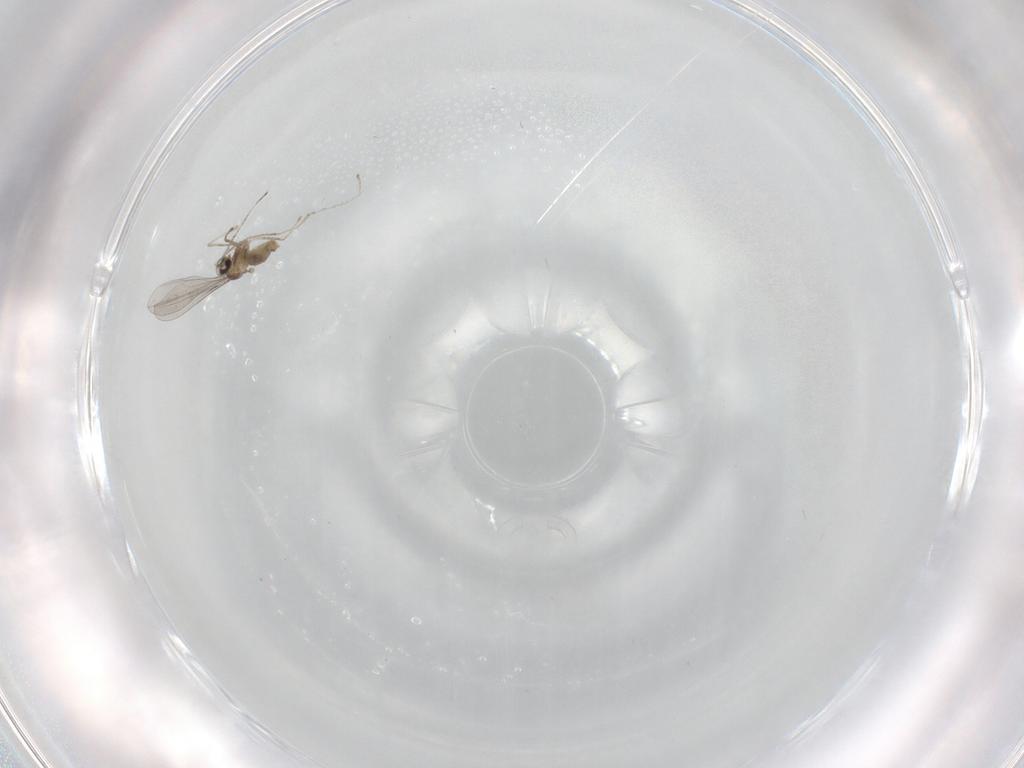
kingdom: Animalia
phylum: Arthropoda
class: Insecta
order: Diptera
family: Cecidomyiidae
